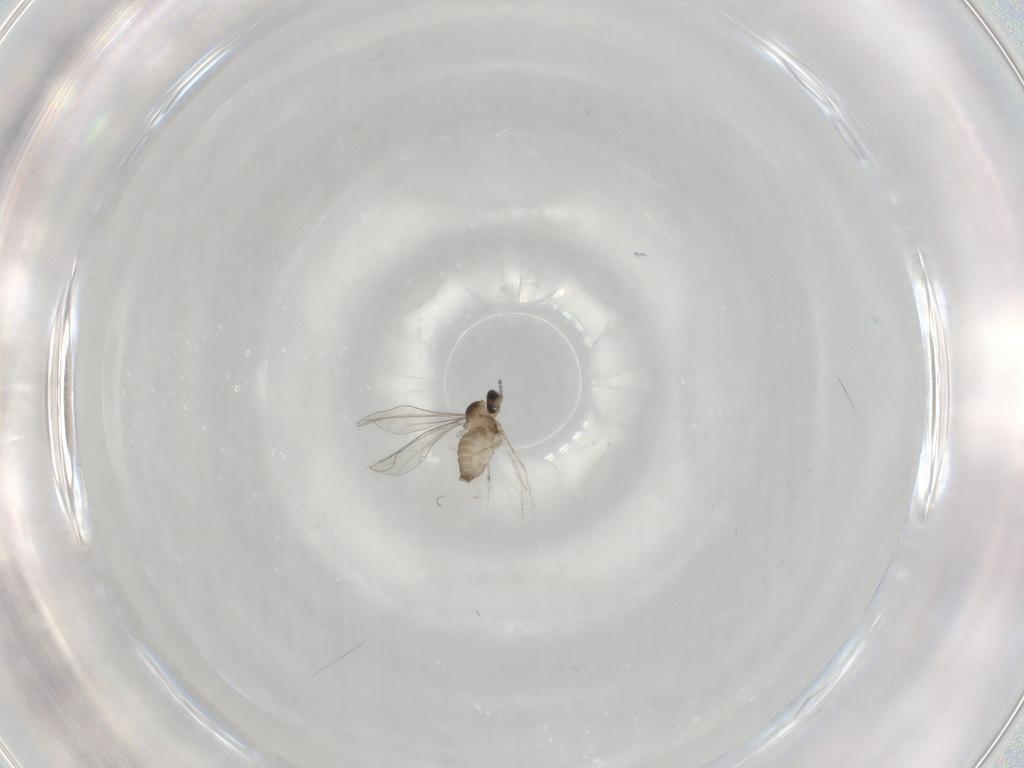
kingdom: Animalia
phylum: Arthropoda
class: Insecta
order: Diptera
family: Cecidomyiidae
